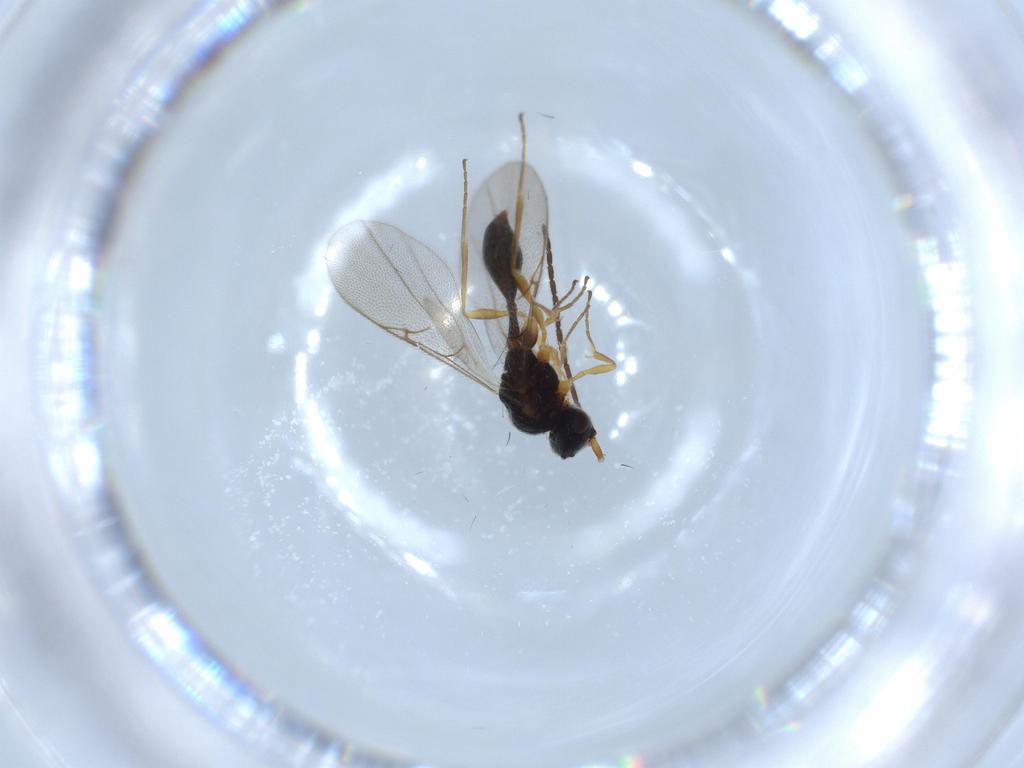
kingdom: Animalia
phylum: Arthropoda
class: Insecta
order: Hymenoptera
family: Diapriidae
